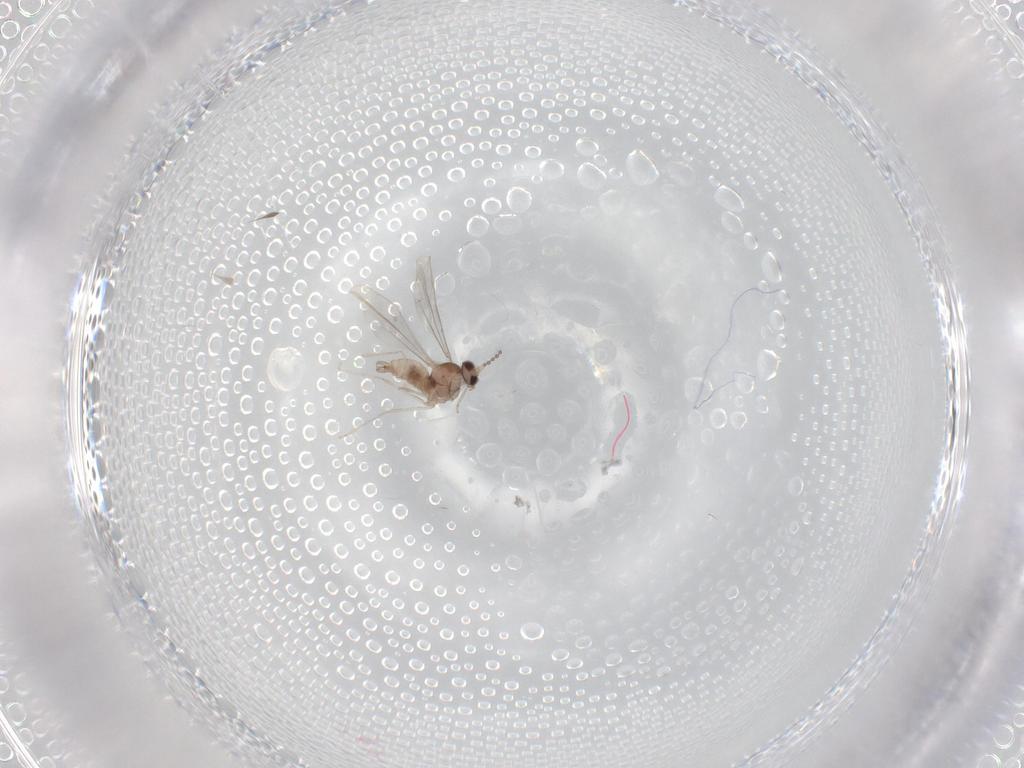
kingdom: Animalia
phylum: Arthropoda
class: Insecta
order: Diptera
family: Cecidomyiidae
